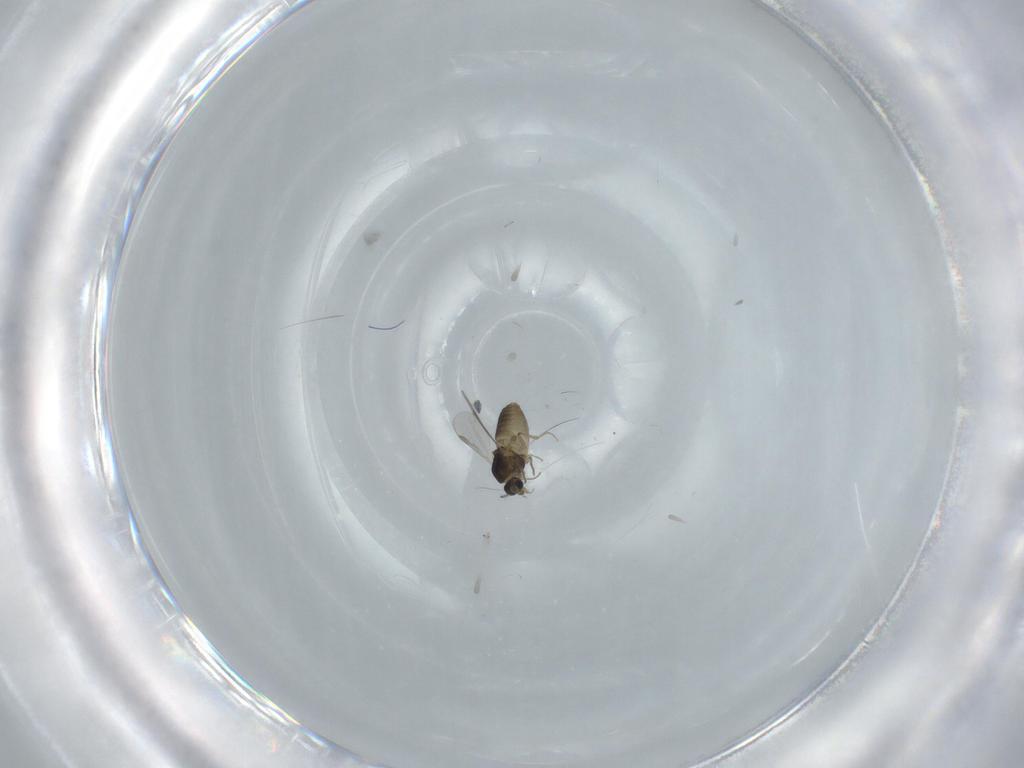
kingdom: Animalia
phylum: Arthropoda
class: Insecta
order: Diptera
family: Chironomidae
